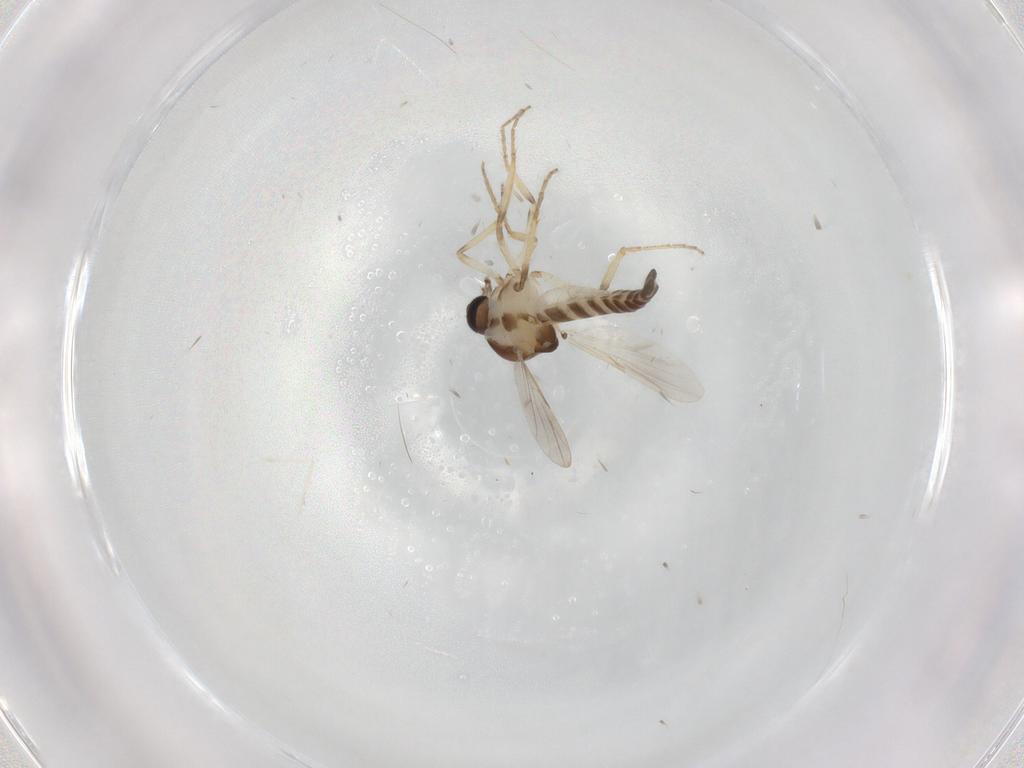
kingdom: Animalia
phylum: Arthropoda
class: Insecta
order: Diptera
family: Ceratopogonidae
